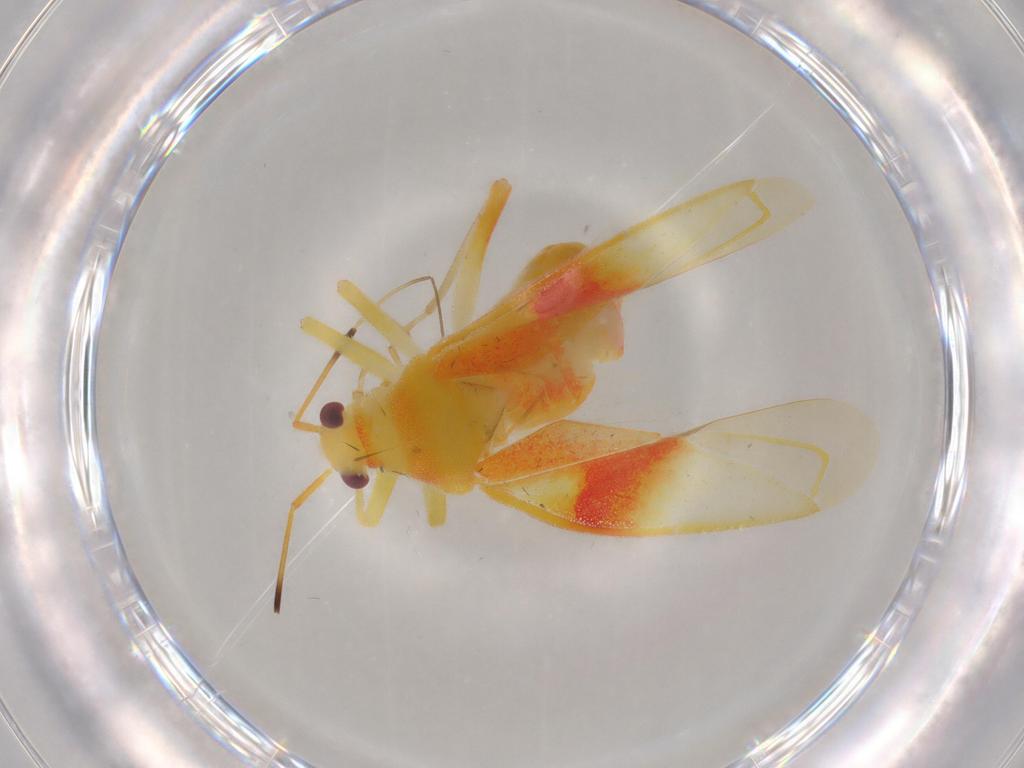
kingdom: Animalia
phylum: Arthropoda
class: Insecta
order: Hemiptera
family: Miridae
